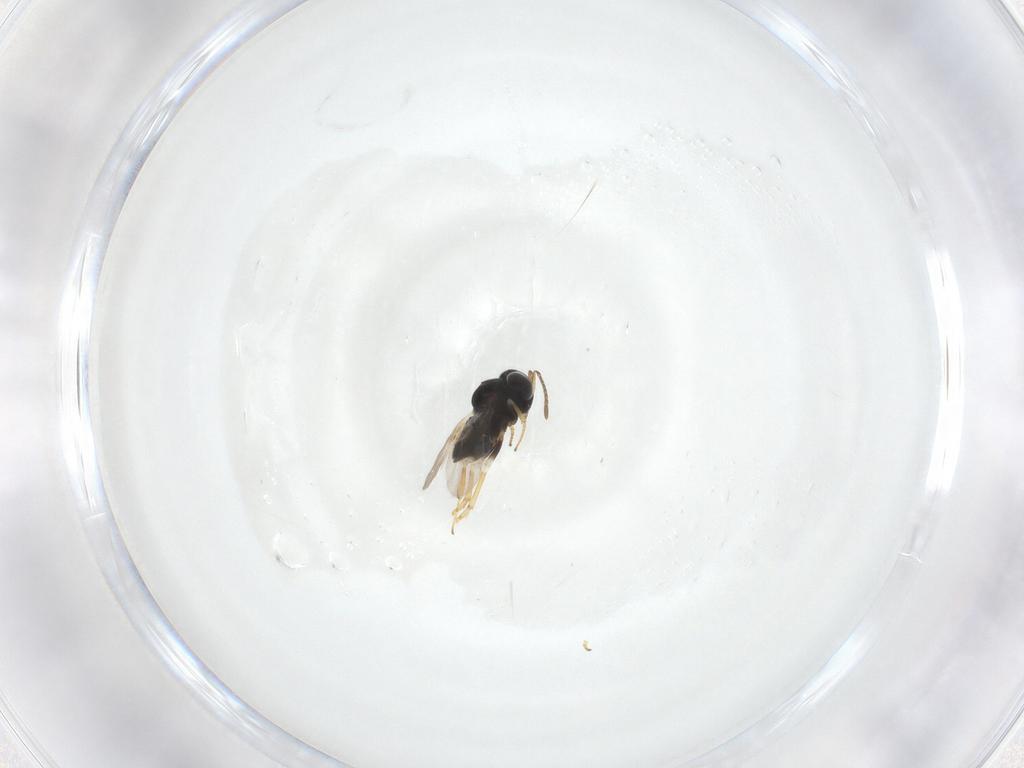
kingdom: Animalia
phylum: Arthropoda
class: Insecta
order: Hymenoptera
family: Encyrtidae
